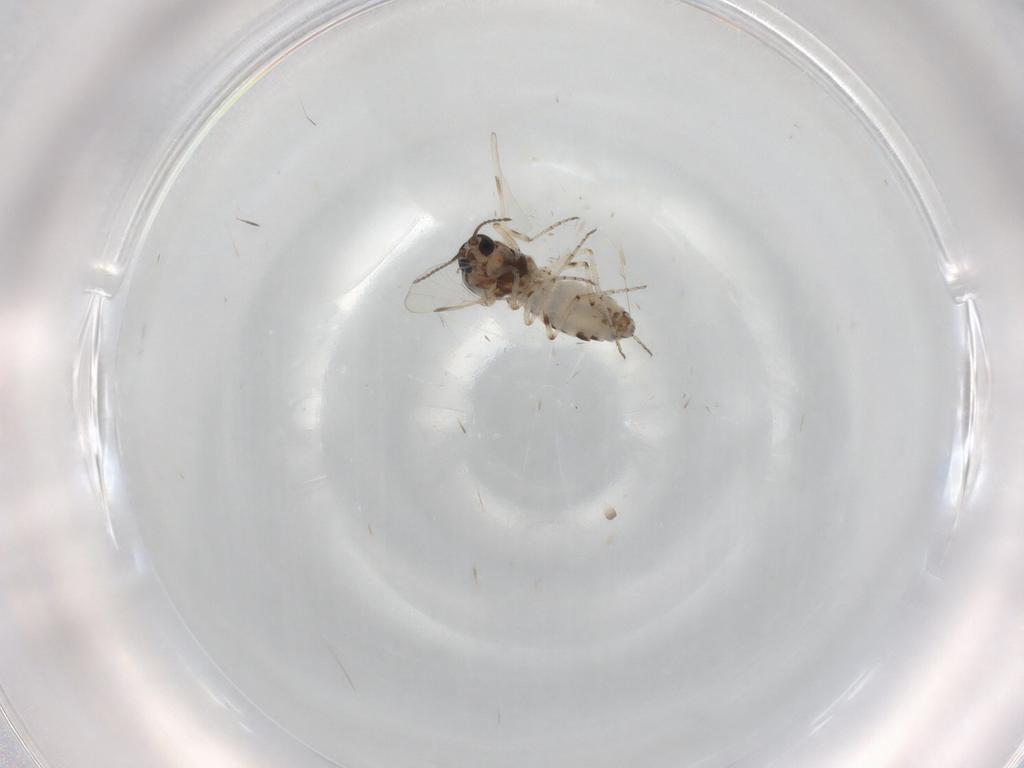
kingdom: Animalia
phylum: Arthropoda
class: Insecta
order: Diptera
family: Ceratopogonidae
